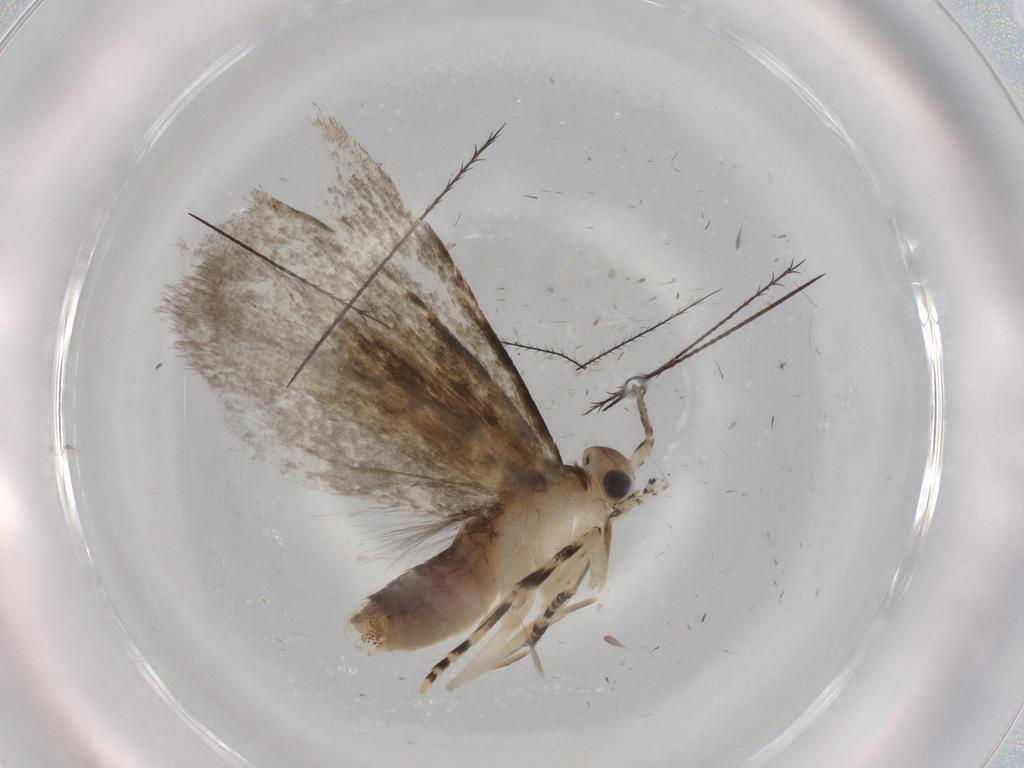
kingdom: Animalia
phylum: Arthropoda
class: Insecta
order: Lepidoptera
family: Tineidae
